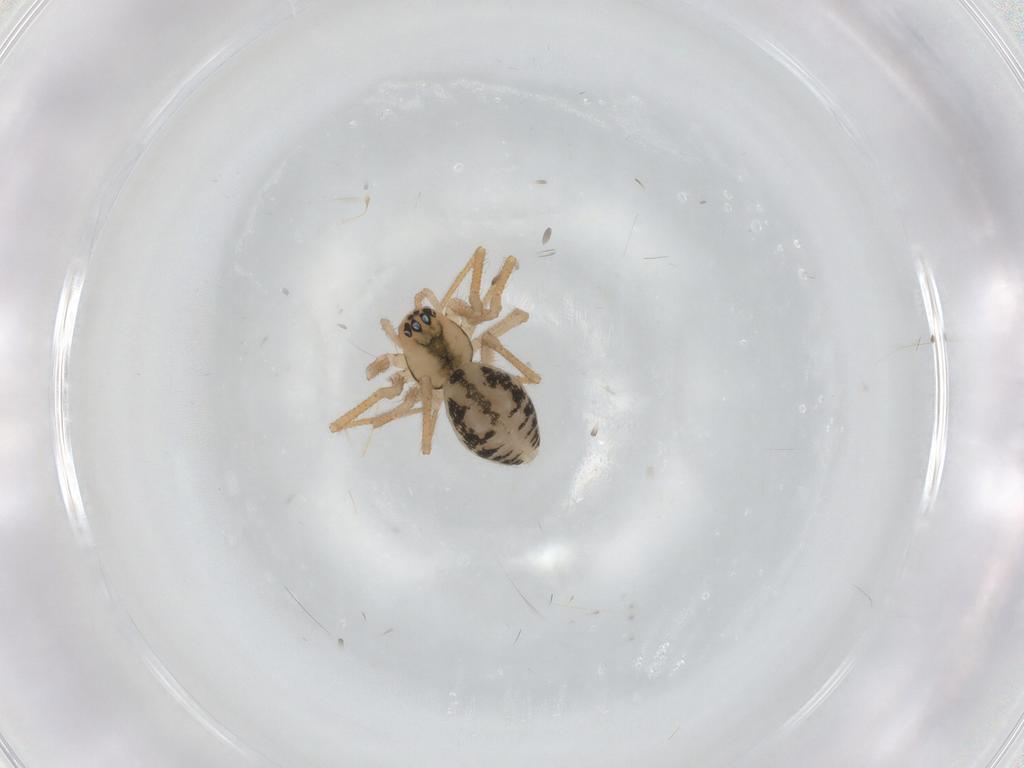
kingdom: Animalia
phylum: Arthropoda
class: Arachnida
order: Araneae
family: Linyphiidae
